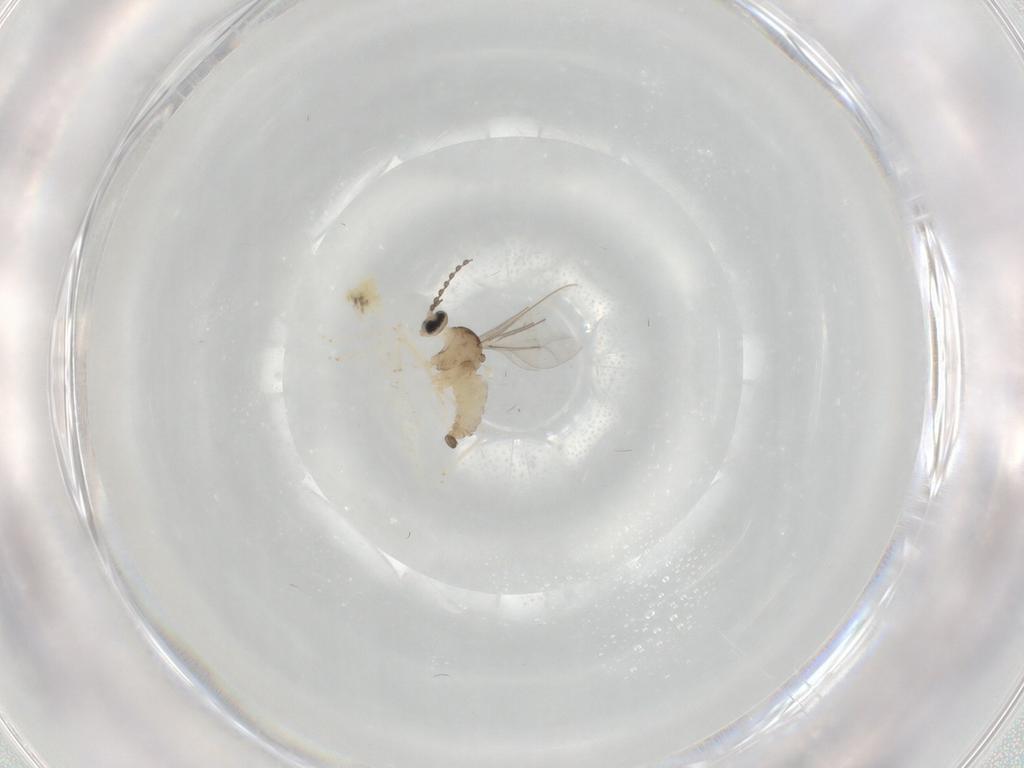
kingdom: Animalia
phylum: Arthropoda
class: Insecta
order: Diptera
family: Cecidomyiidae
